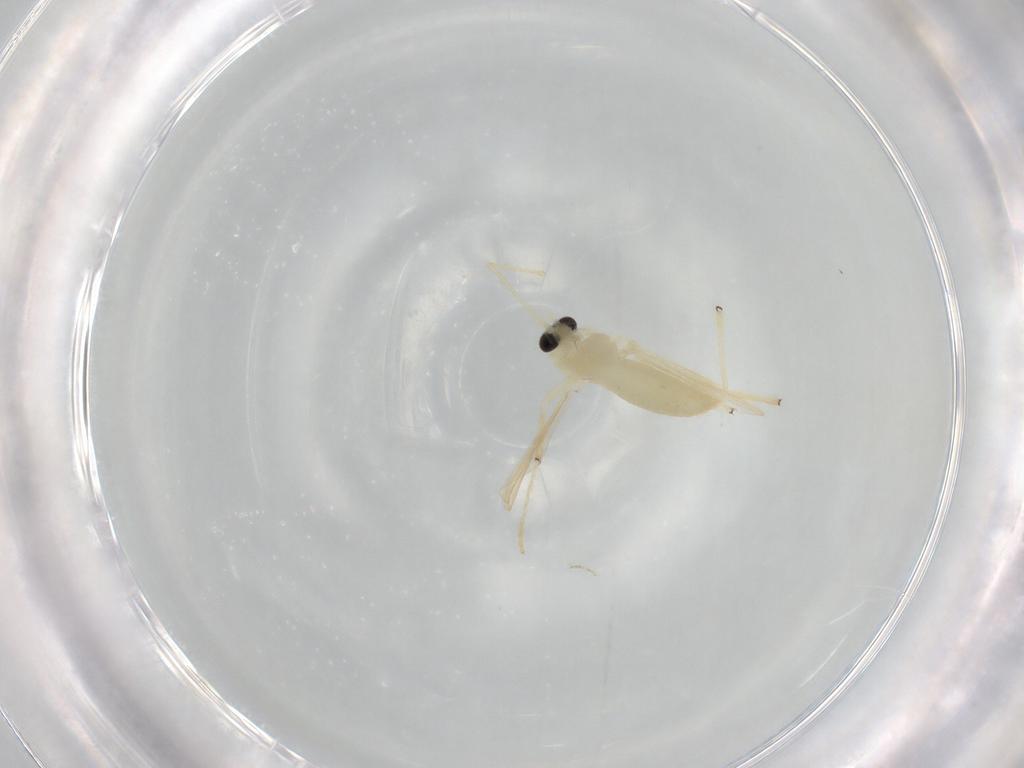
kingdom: Animalia
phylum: Arthropoda
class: Insecta
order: Diptera
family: Chironomidae
